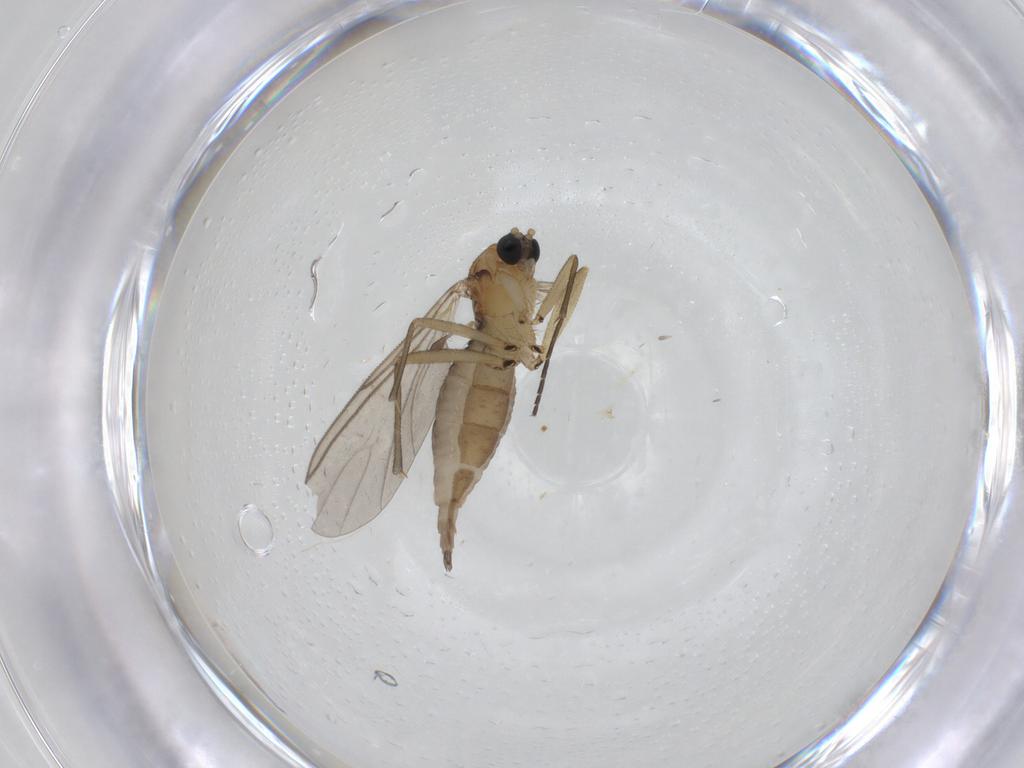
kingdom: Animalia
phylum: Arthropoda
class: Insecta
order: Diptera
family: Sciaridae
